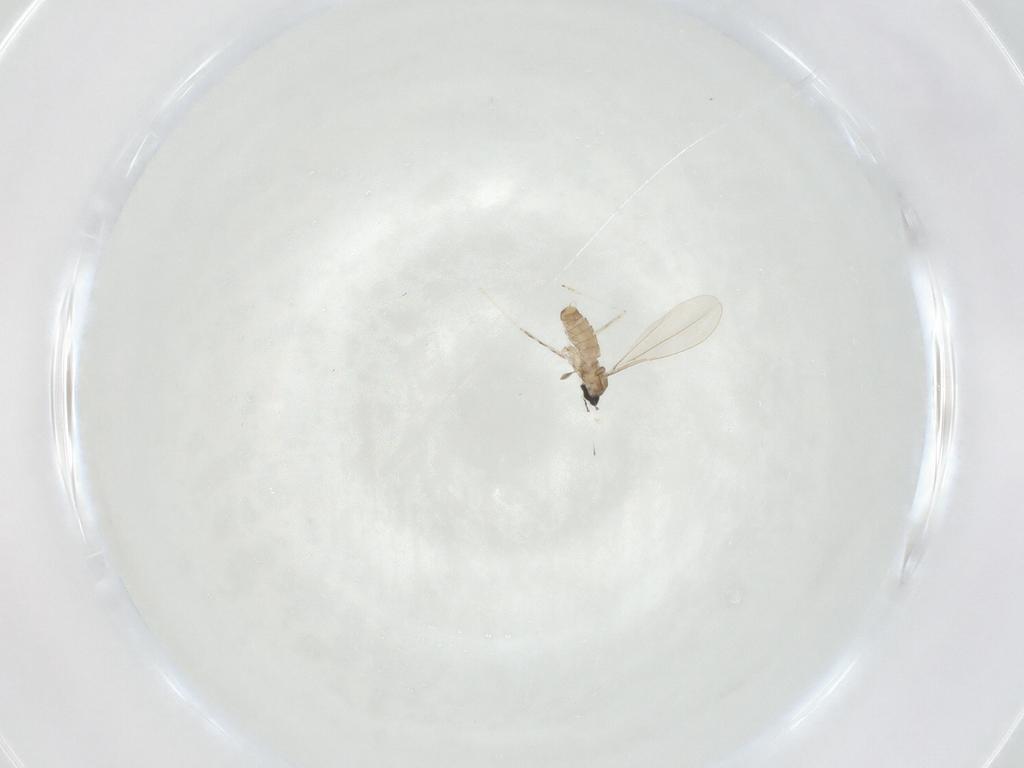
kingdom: Animalia
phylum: Arthropoda
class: Insecta
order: Diptera
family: Cecidomyiidae
